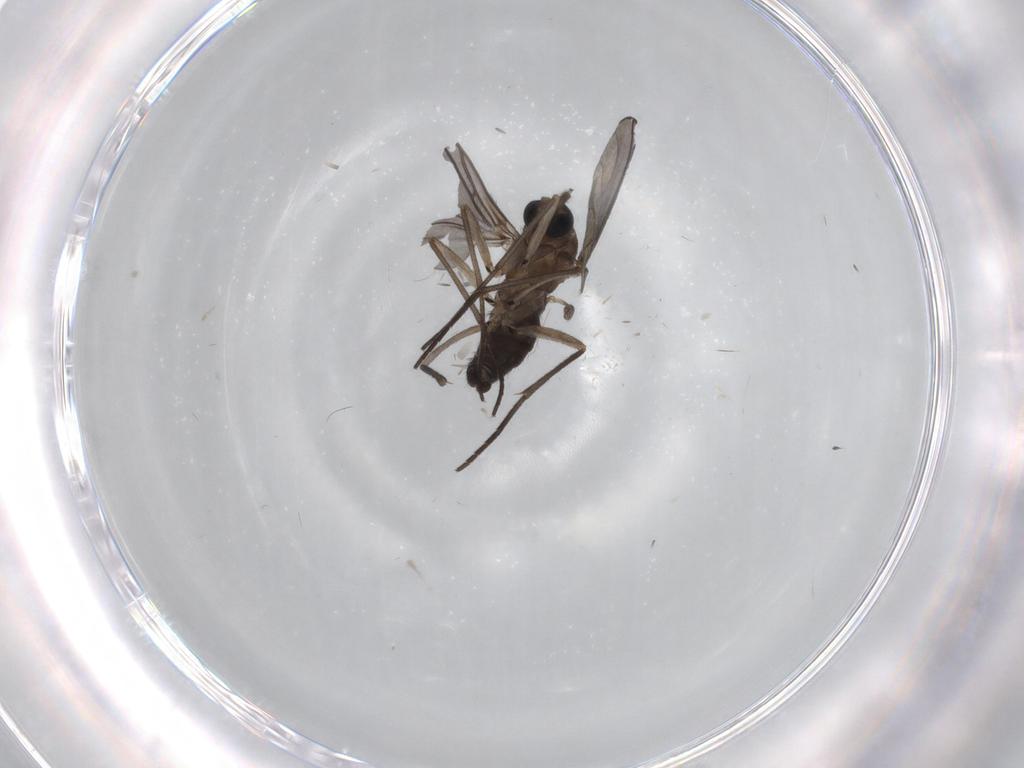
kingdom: Animalia
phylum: Arthropoda
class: Insecta
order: Diptera
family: Sciaridae
